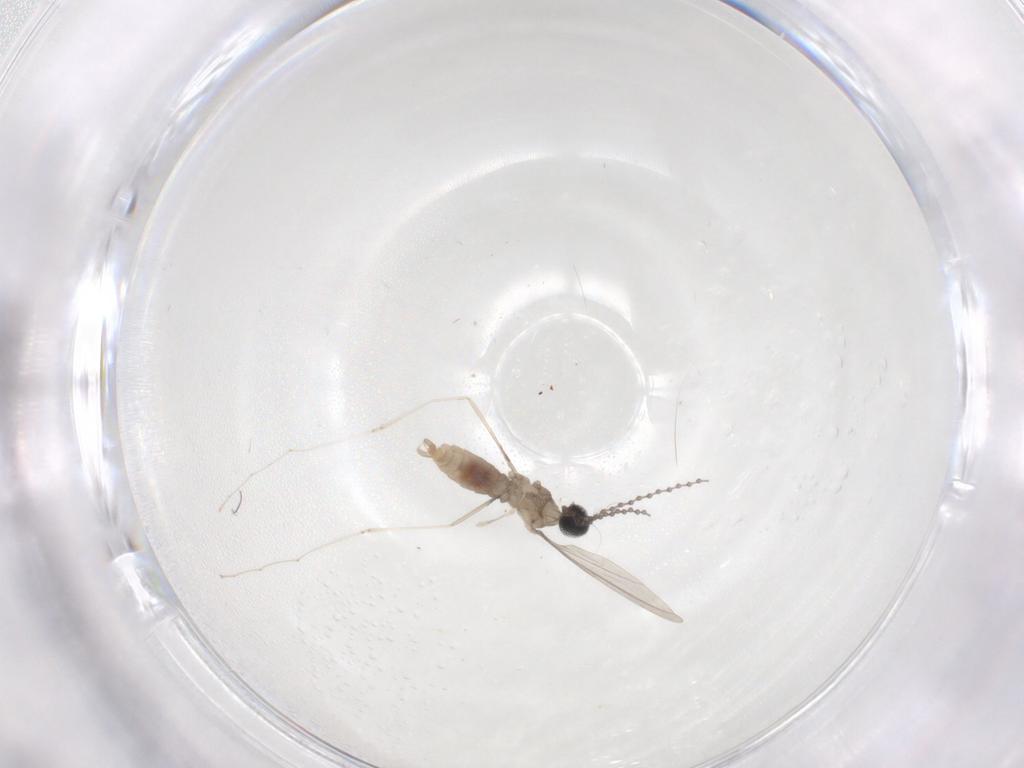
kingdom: Animalia
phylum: Arthropoda
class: Insecta
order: Diptera
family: Cecidomyiidae
